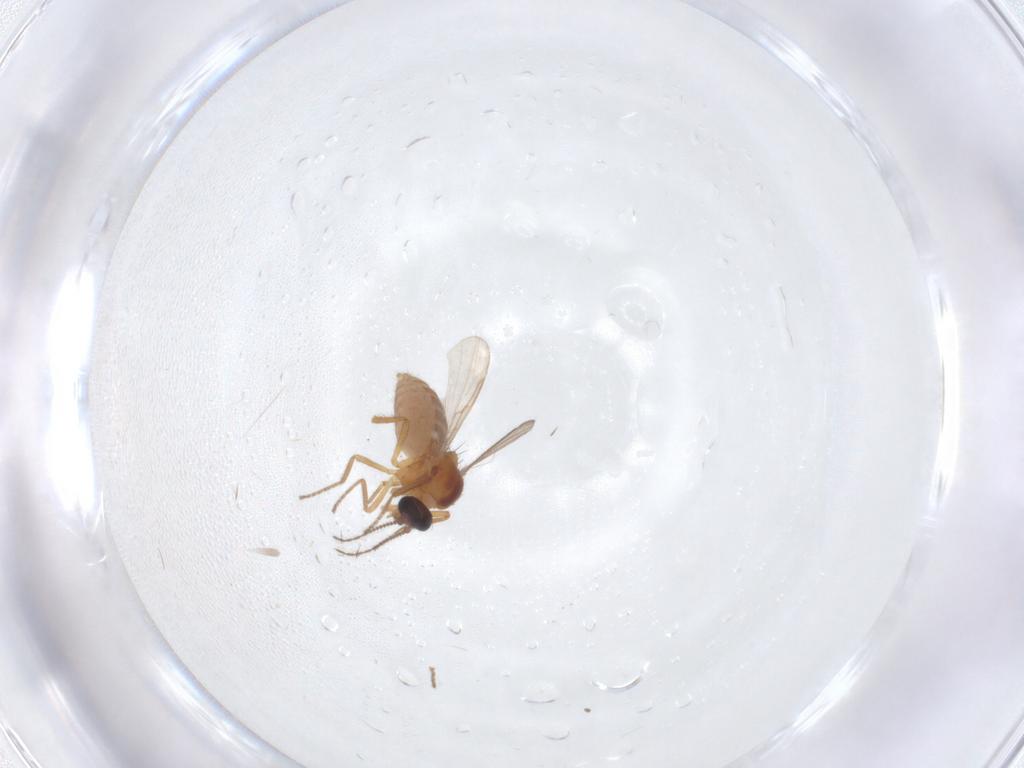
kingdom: Animalia
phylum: Arthropoda
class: Insecta
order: Diptera
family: Ceratopogonidae
